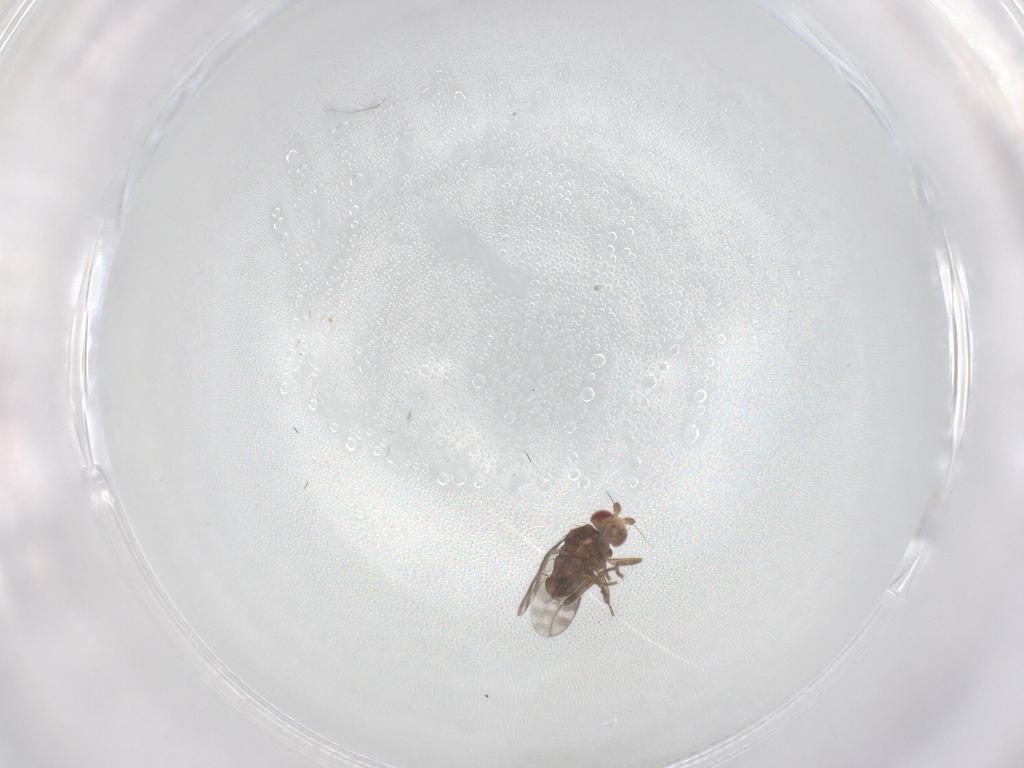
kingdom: Animalia
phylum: Arthropoda
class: Insecta
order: Diptera
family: Sphaeroceridae
